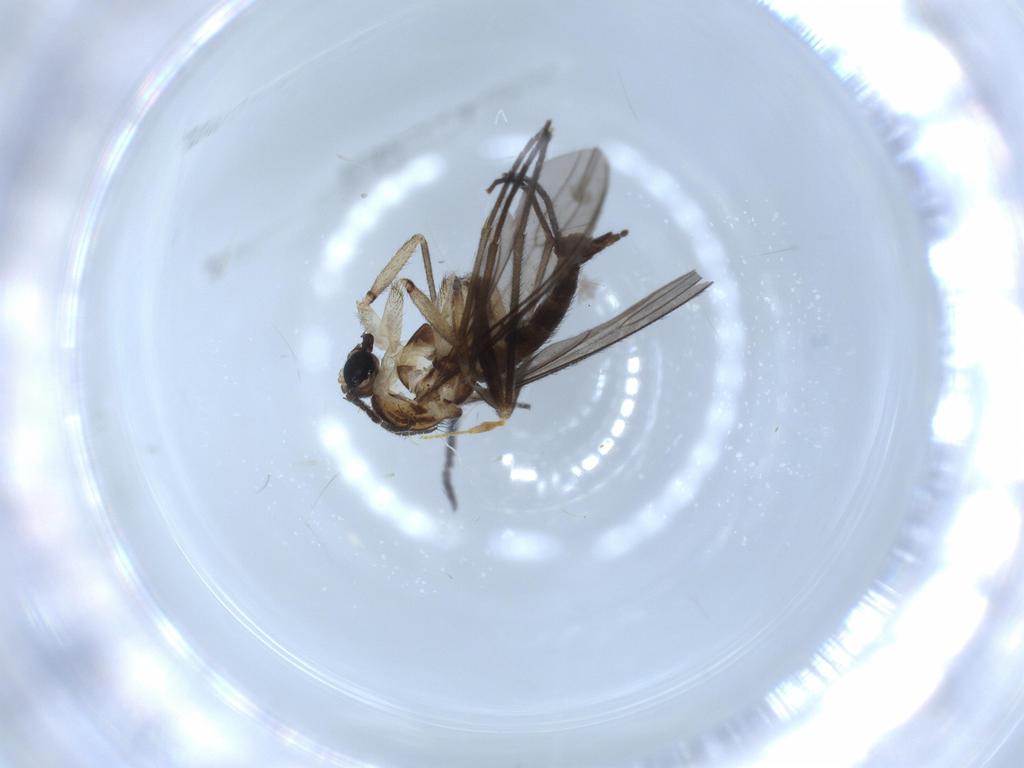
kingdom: Animalia
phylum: Arthropoda
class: Insecta
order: Diptera
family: Sciaridae
